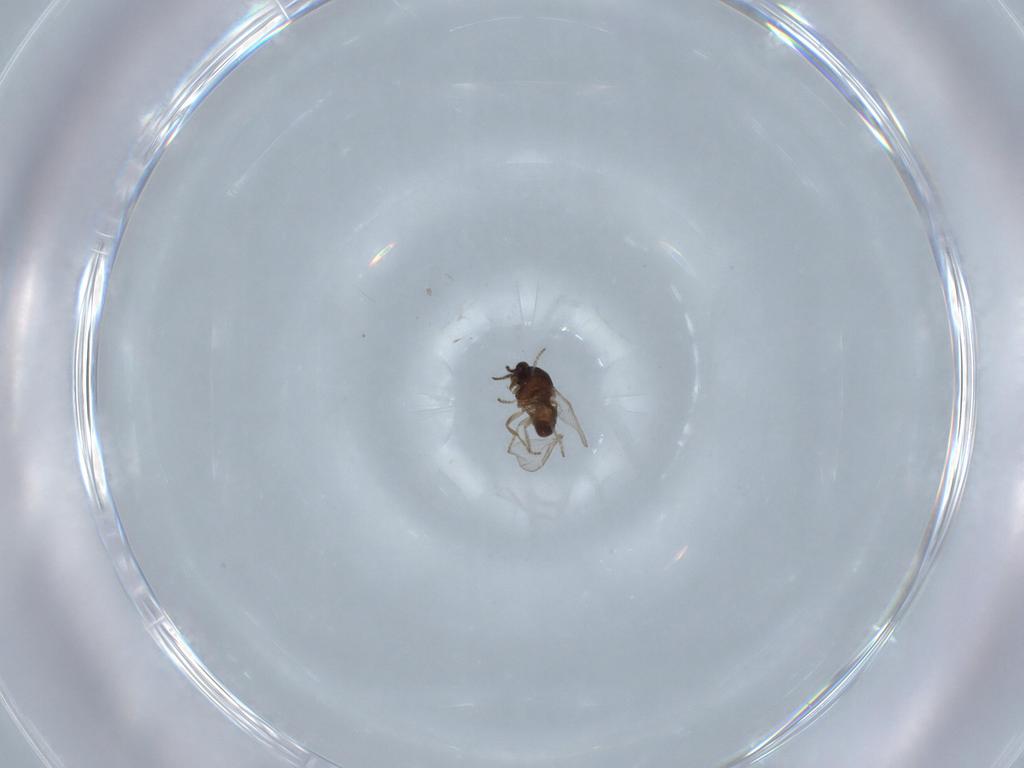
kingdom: Animalia
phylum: Arthropoda
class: Insecta
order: Diptera
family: Ceratopogonidae
